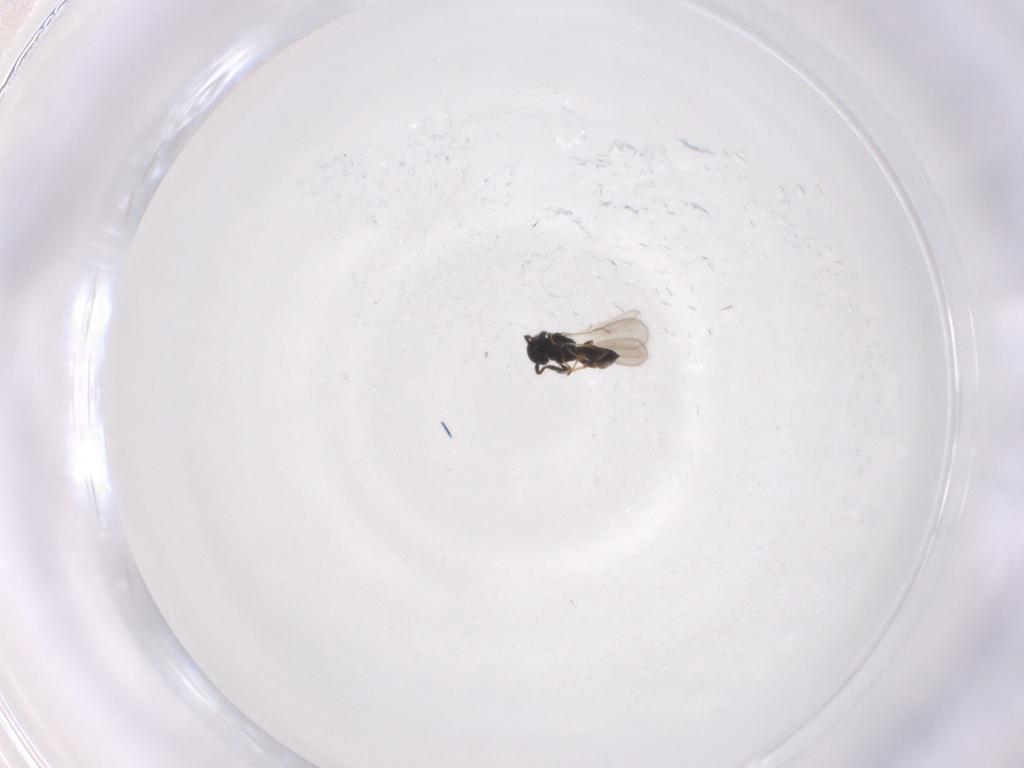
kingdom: Animalia
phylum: Arthropoda
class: Insecta
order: Hymenoptera
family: Scelionidae
